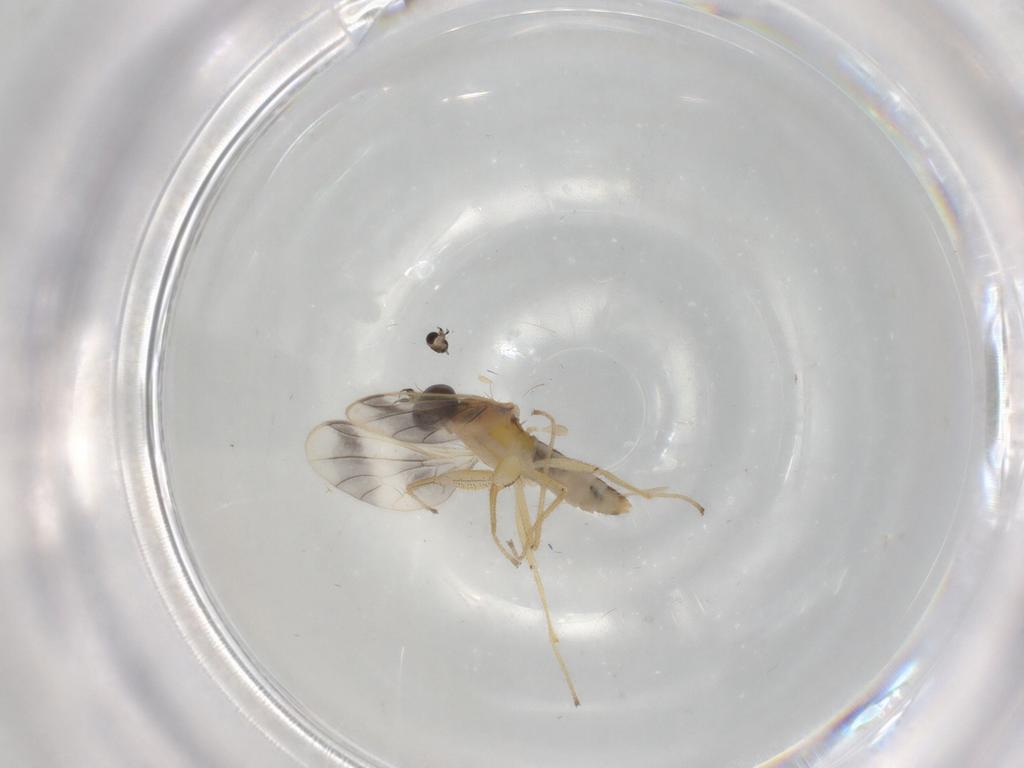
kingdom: Animalia
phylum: Arthropoda
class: Insecta
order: Diptera
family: Empididae
